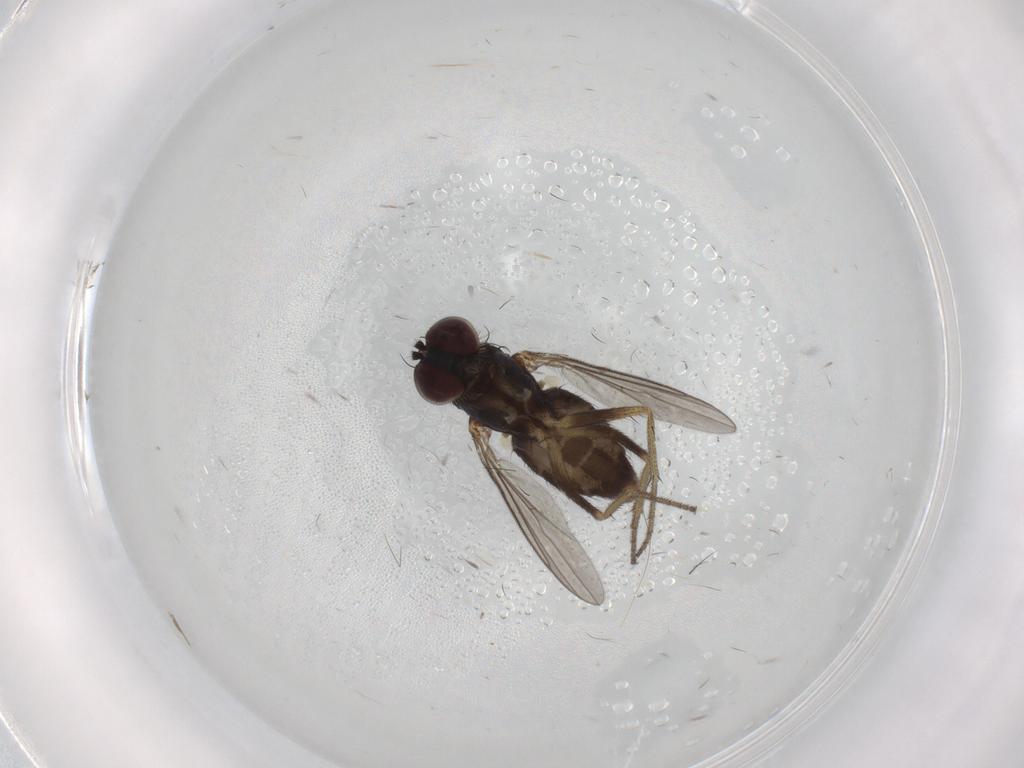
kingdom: Animalia
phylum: Arthropoda
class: Insecta
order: Diptera
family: Cecidomyiidae
